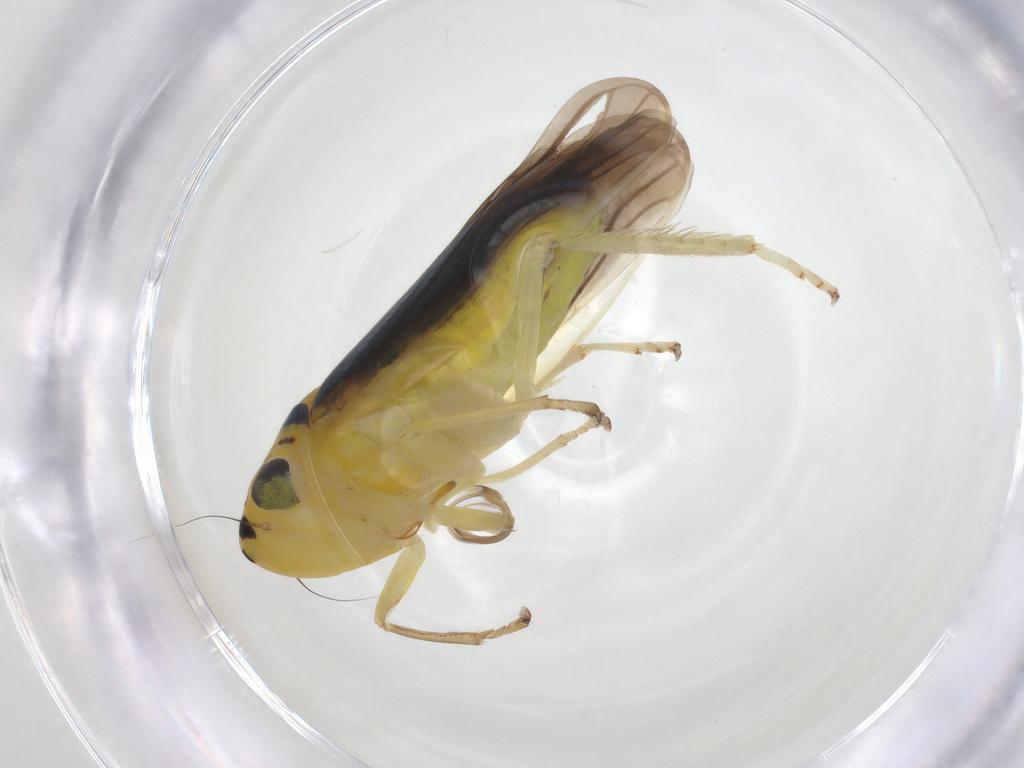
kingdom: Animalia
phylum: Arthropoda
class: Insecta
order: Hemiptera
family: Cicadellidae
